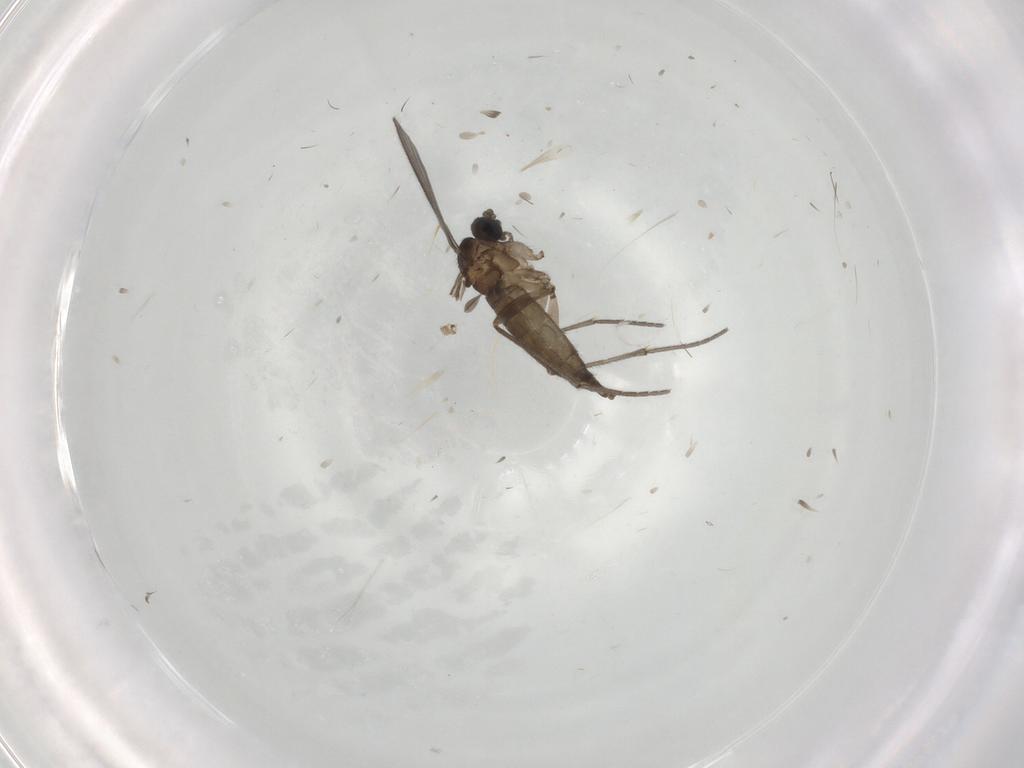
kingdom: Animalia
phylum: Arthropoda
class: Insecta
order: Diptera
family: Sciaridae
